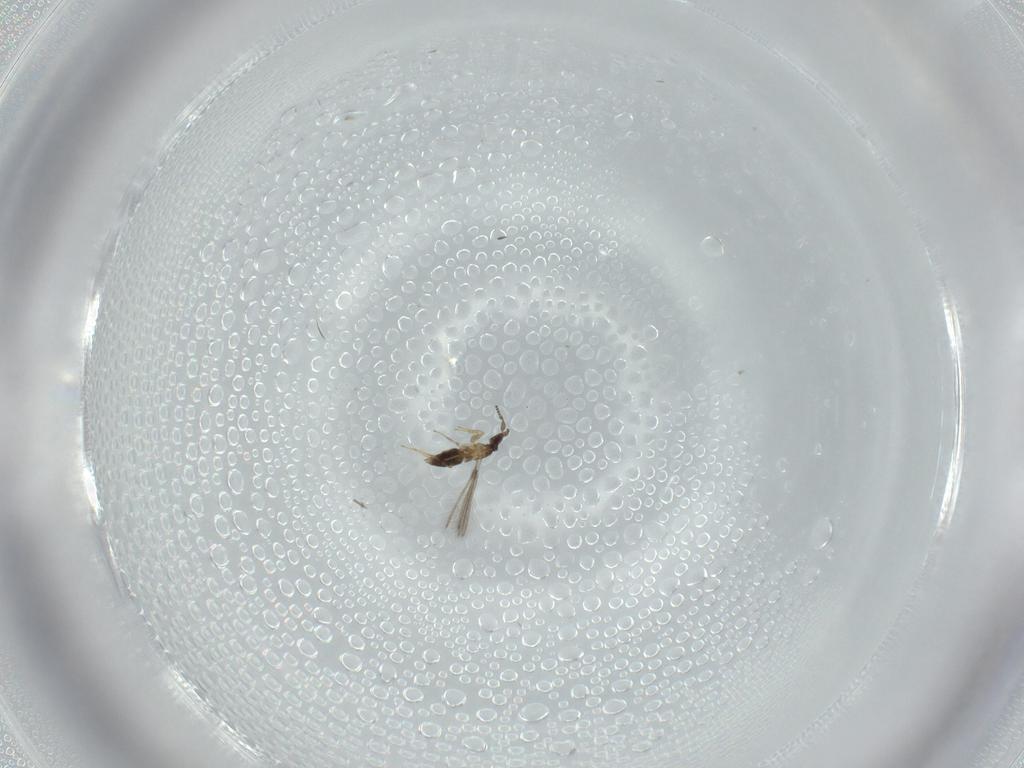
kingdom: Animalia
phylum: Arthropoda
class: Insecta
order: Hymenoptera
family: Mymaridae
